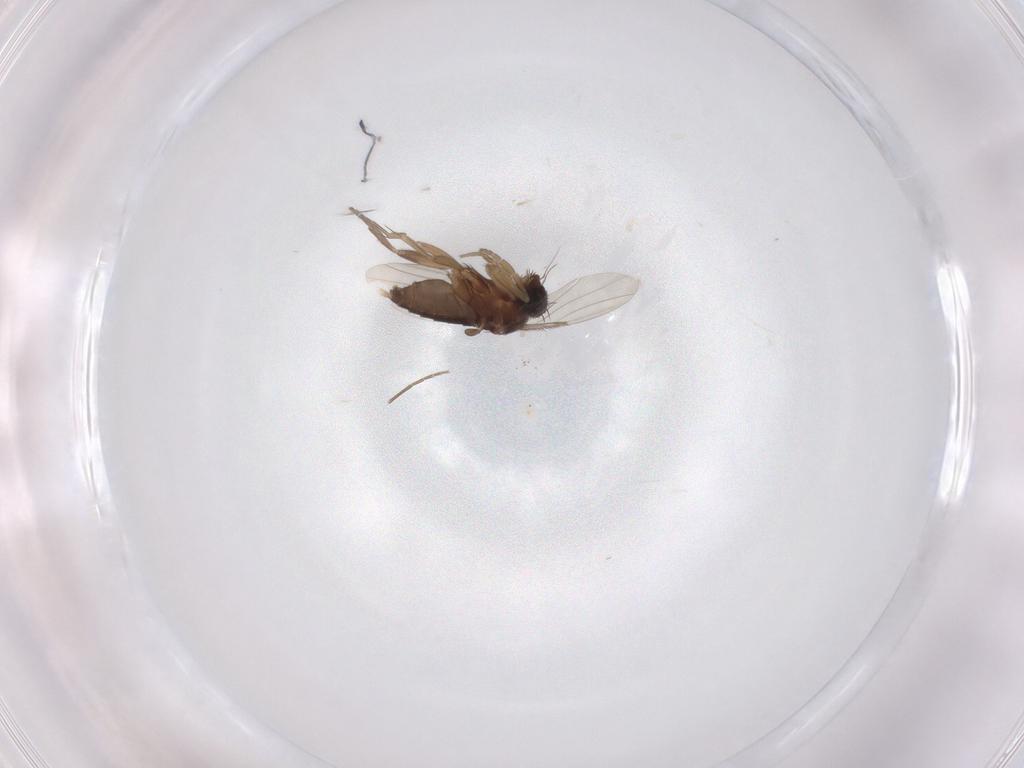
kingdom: Animalia
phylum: Arthropoda
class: Insecta
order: Diptera
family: Phoridae
